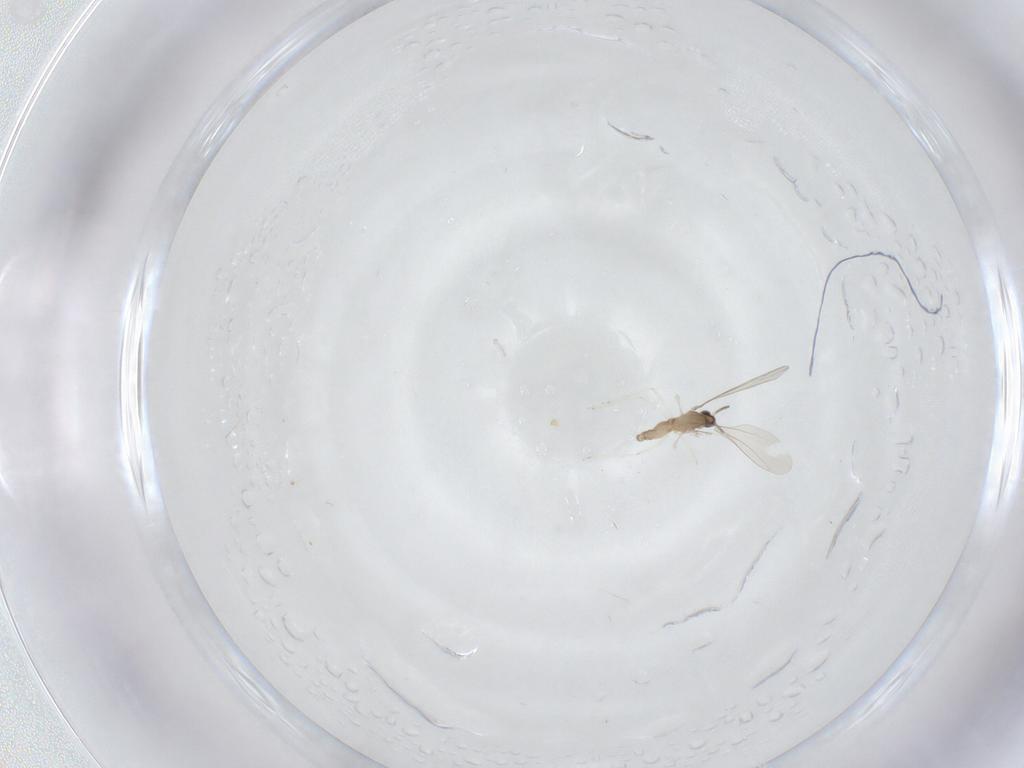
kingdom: Animalia
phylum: Arthropoda
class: Insecta
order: Diptera
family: Cecidomyiidae
